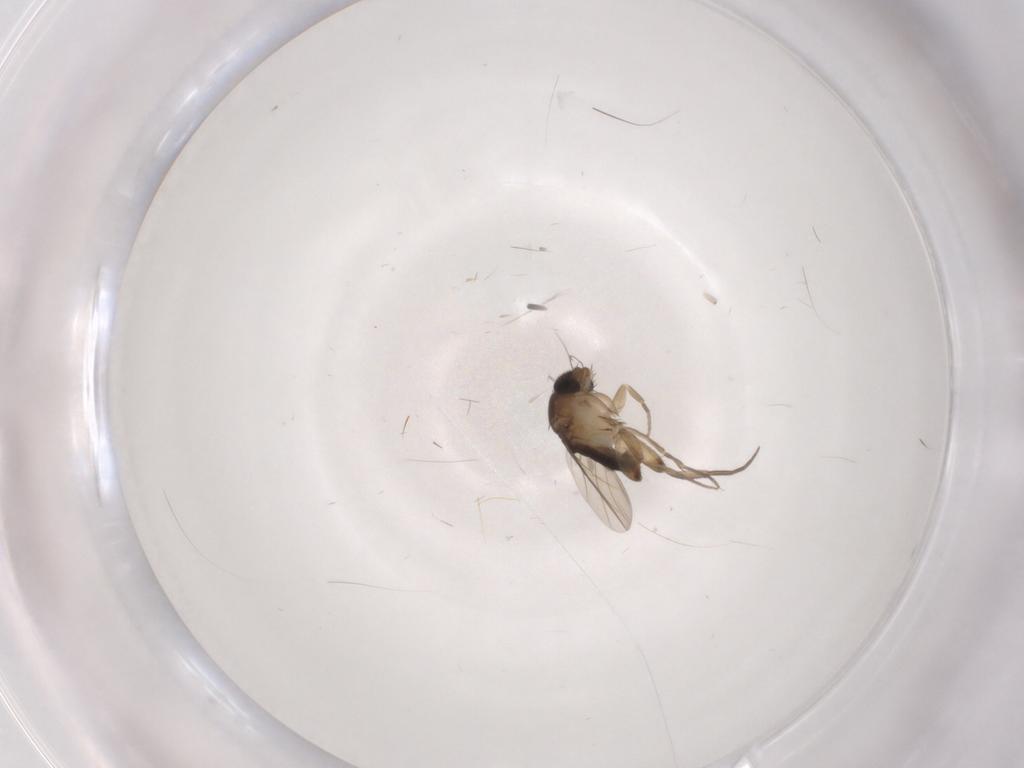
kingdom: Animalia
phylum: Arthropoda
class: Insecta
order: Diptera
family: Phoridae
